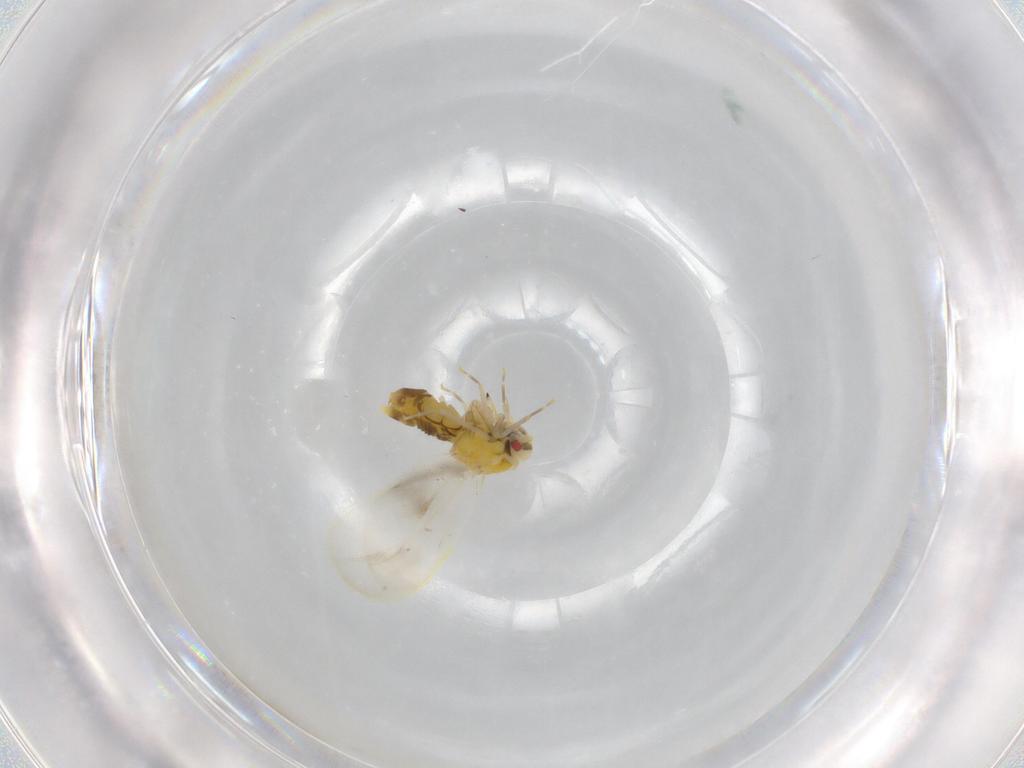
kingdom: Animalia
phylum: Arthropoda
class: Insecta
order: Hemiptera
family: Aleyrodidae
